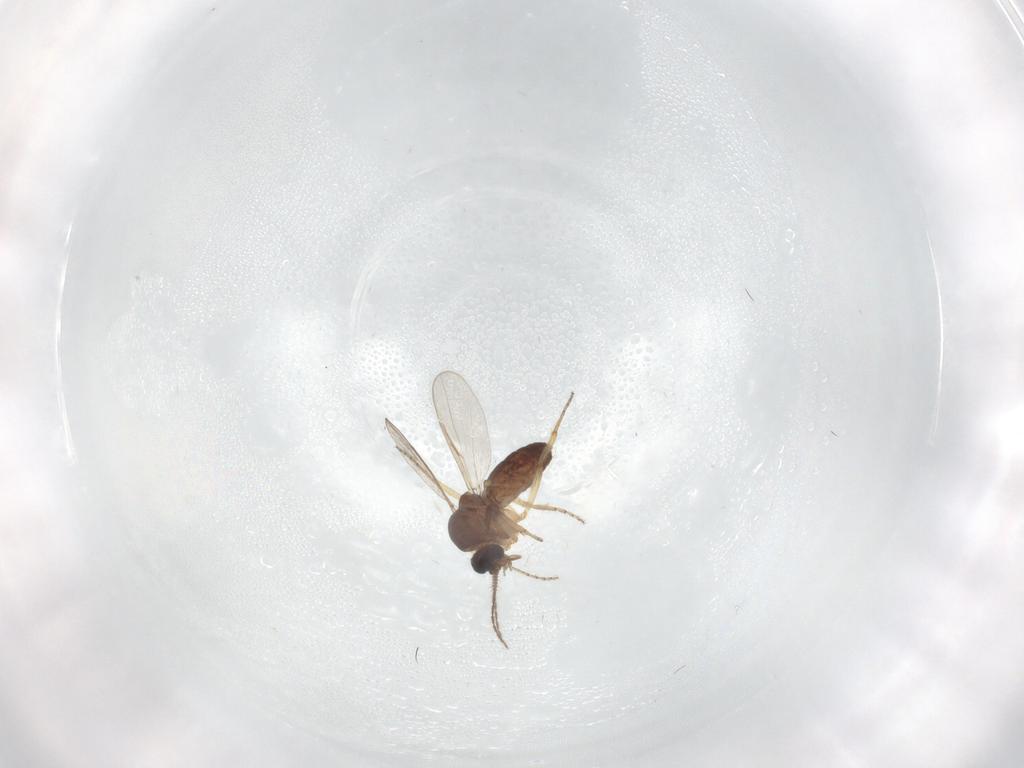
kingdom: Animalia
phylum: Arthropoda
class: Insecta
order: Diptera
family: Ceratopogonidae
